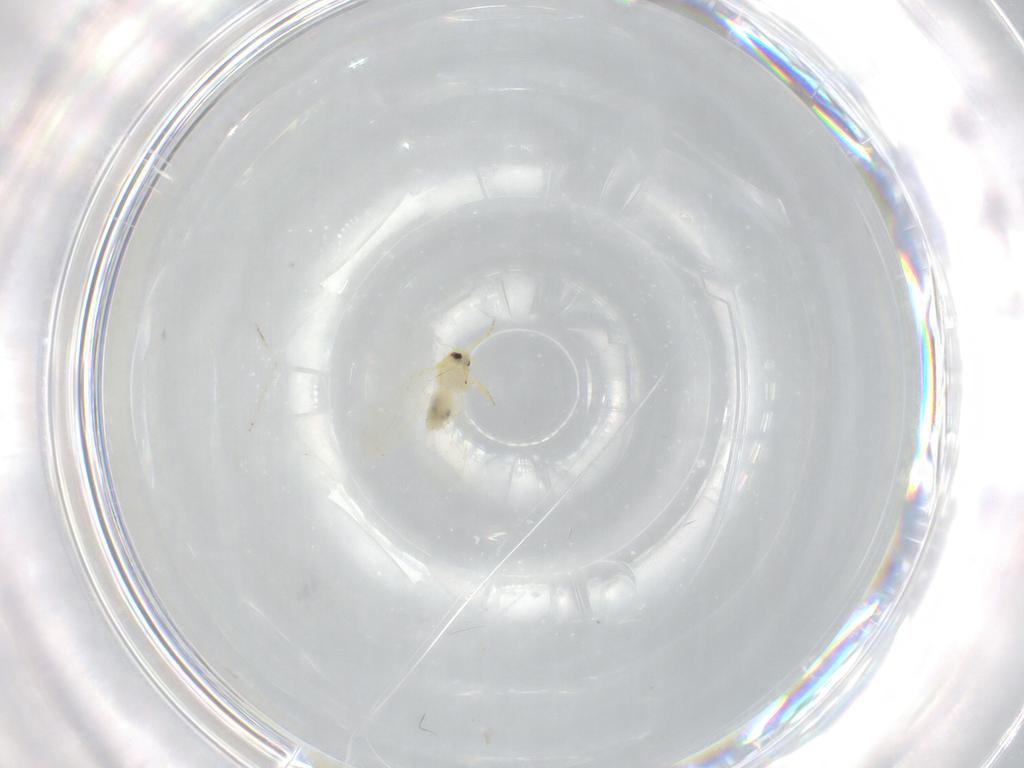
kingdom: Animalia
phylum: Arthropoda
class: Insecta
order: Hemiptera
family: Aleyrodidae
